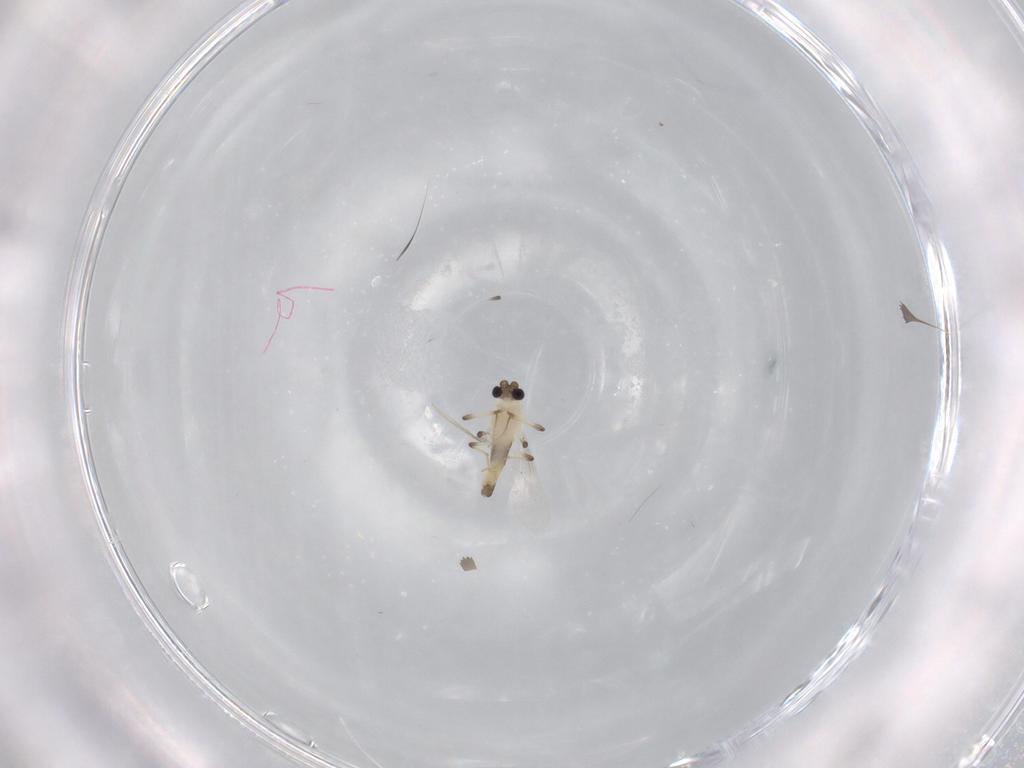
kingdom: Animalia
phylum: Arthropoda
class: Insecta
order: Diptera
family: Chironomidae
